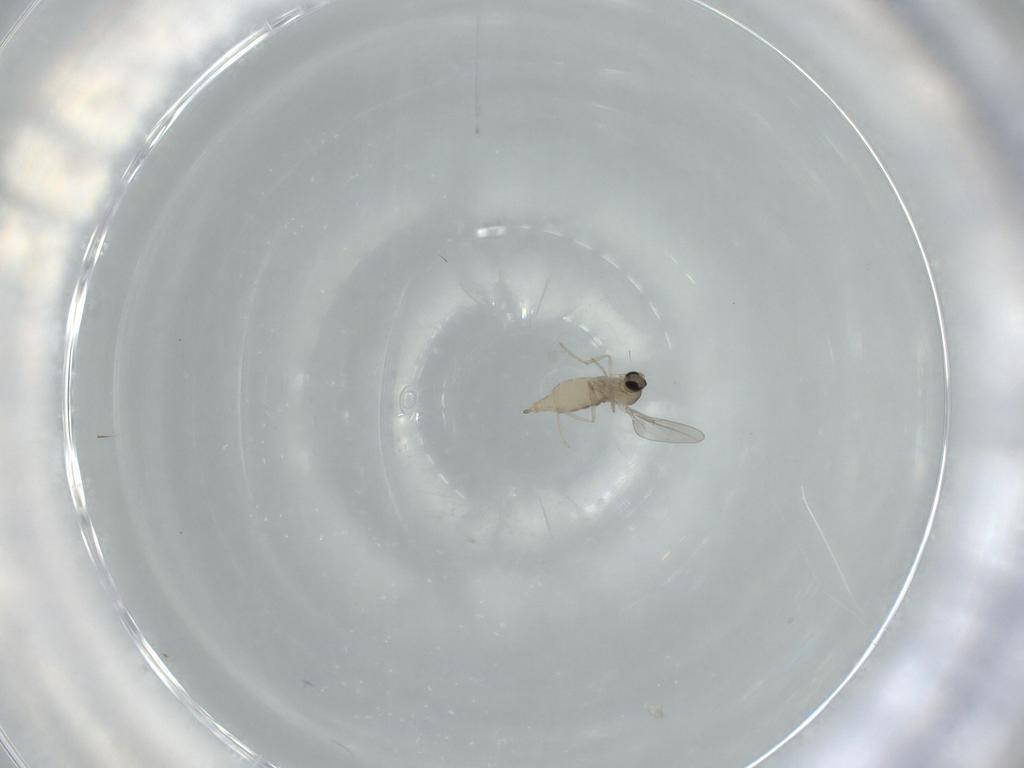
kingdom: Animalia
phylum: Arthropoda
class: Insecta
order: Diptera
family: Cecidomyiidae
